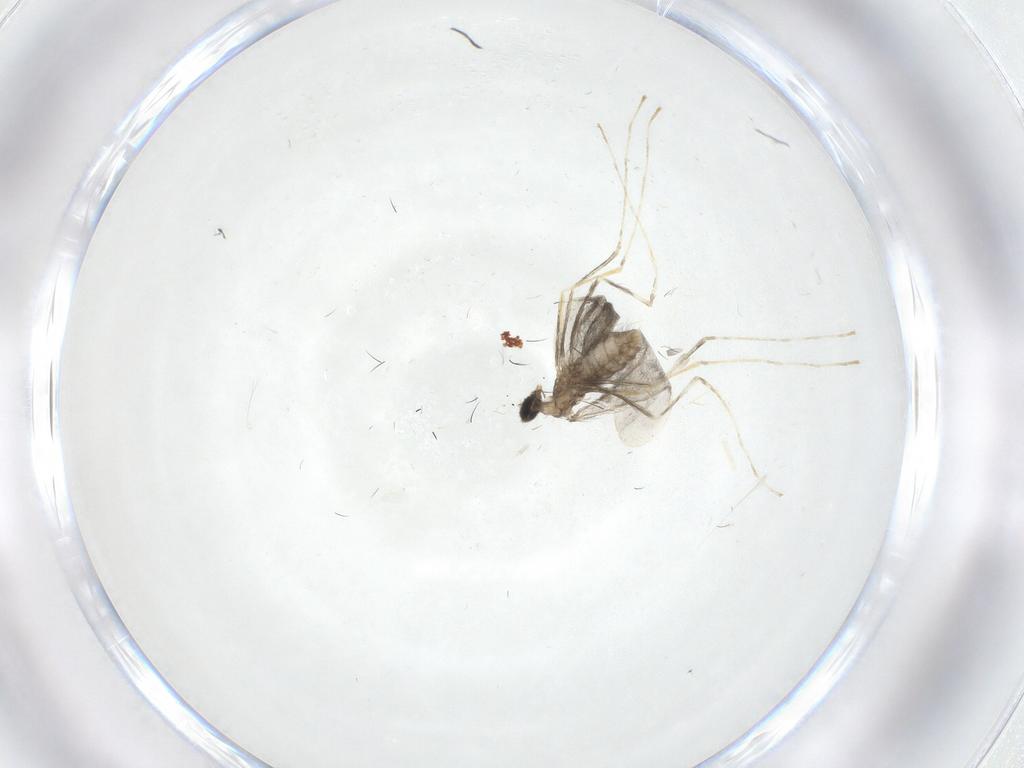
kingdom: Animalia
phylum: Arthropoda
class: Insecta
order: Diptera
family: Cecidomyiidae
